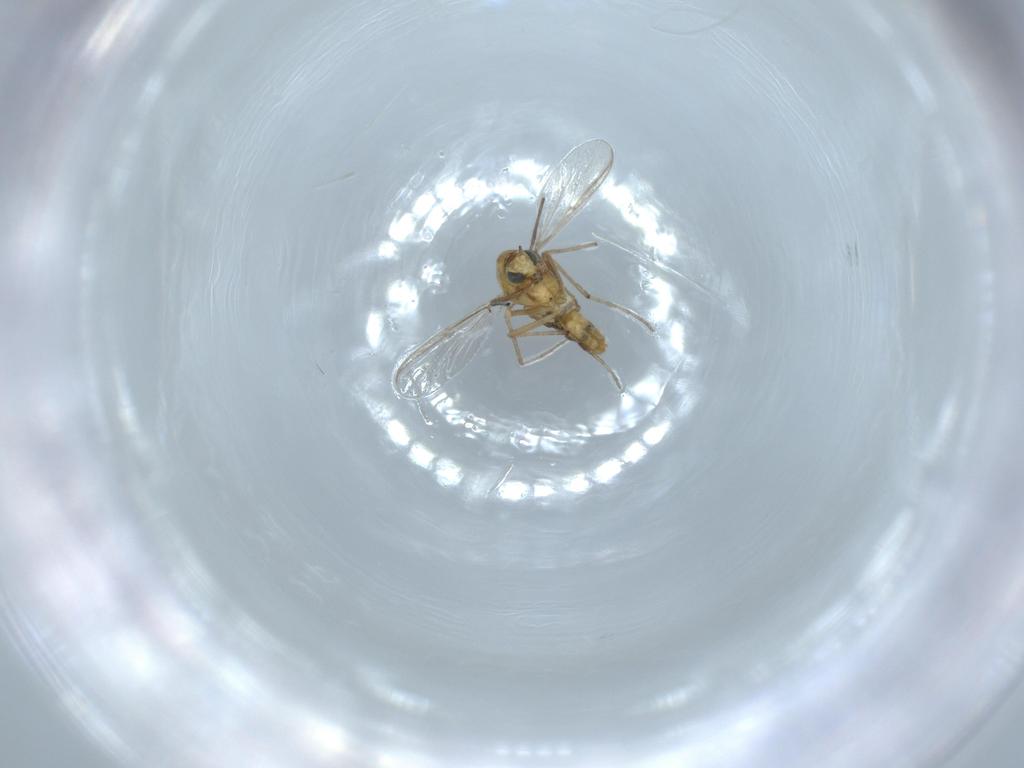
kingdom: Animalia
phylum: Arthropoda
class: Insecta
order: Diptera
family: Chironomidae
